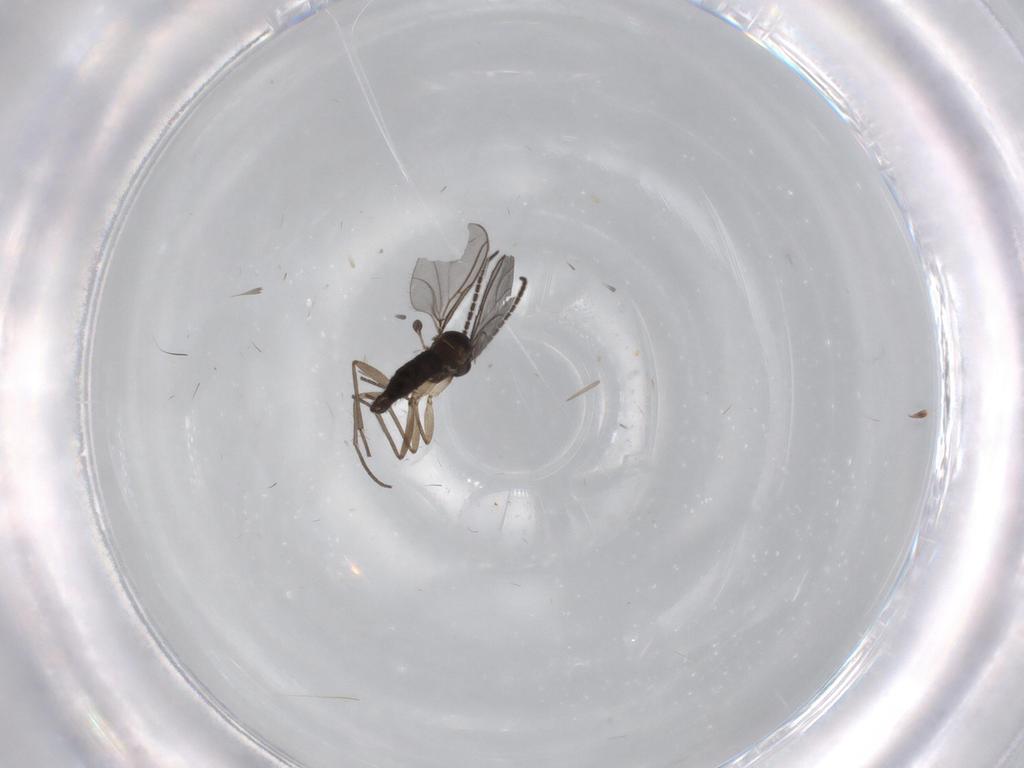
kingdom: Animalia
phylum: Arthropoda
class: Insecta
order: Diptera
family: Sciaridae
